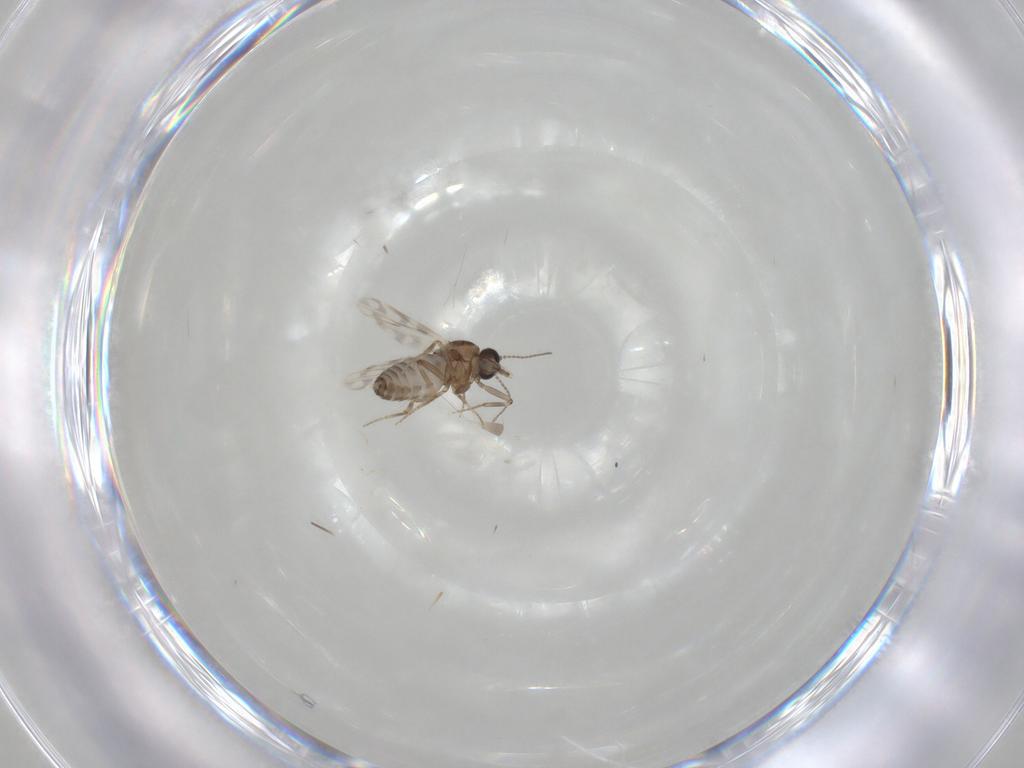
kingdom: Animalia
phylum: Arthropoda
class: Insecta
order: Diptera
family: Ceratopogonidae
